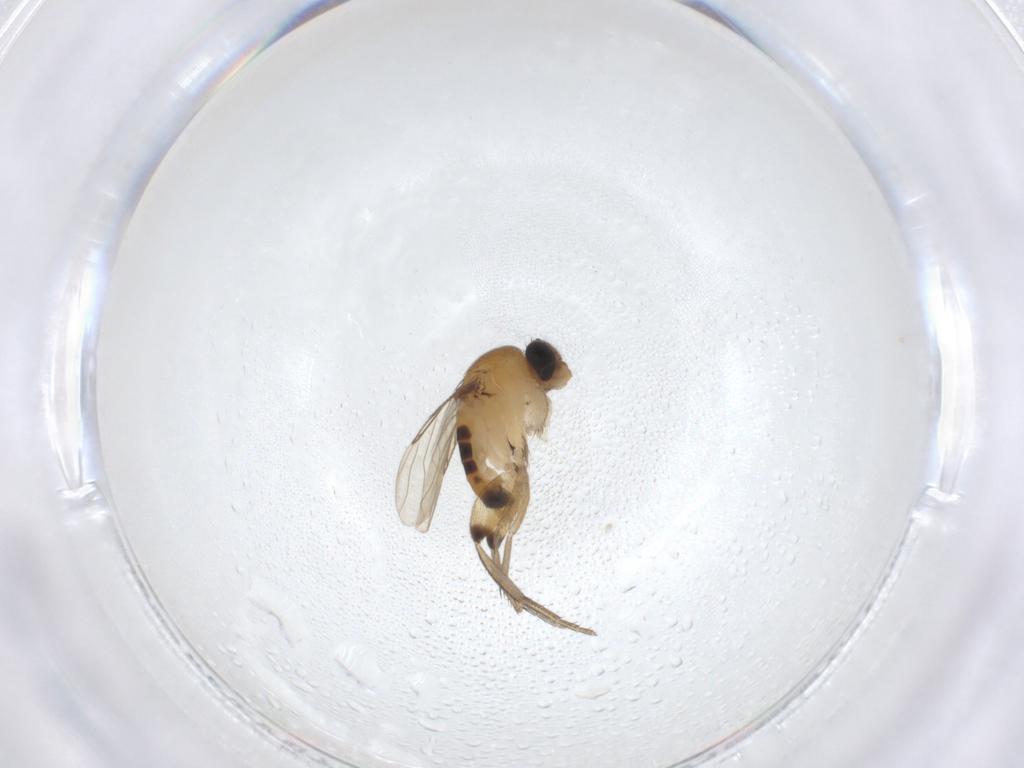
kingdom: Animalia
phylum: Arthropoda
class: Insecta
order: Diptera
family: Phoridae
